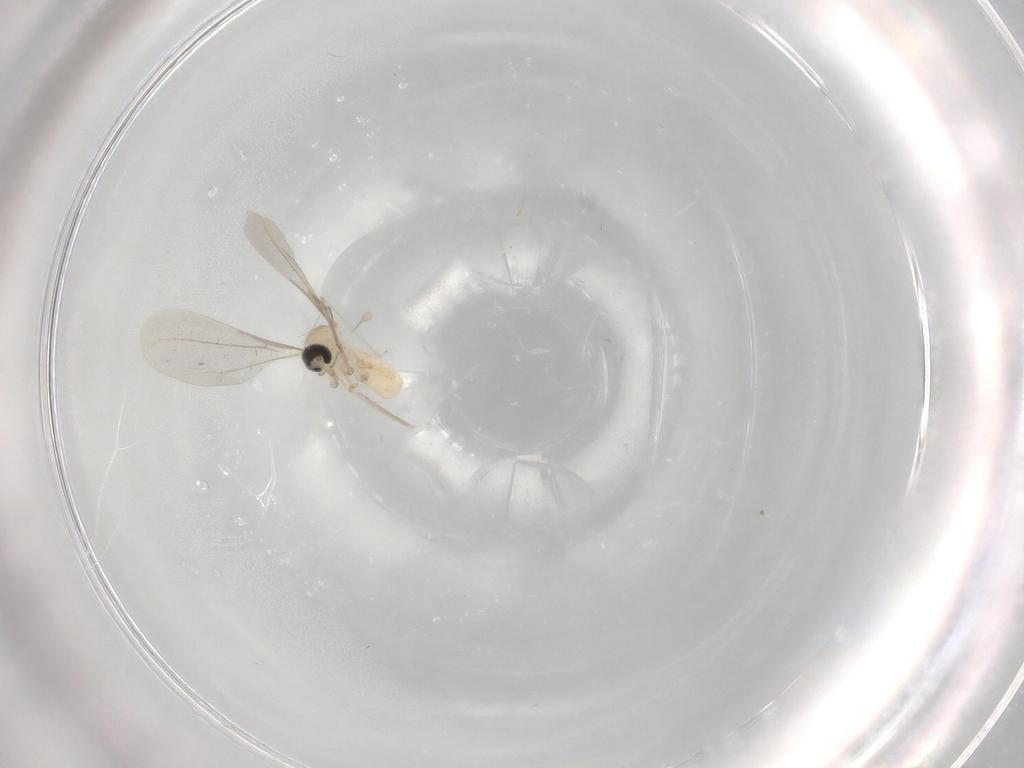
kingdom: Animalia
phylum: Arthropoda
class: Insecta
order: Diptera
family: Cecidomyiidae
